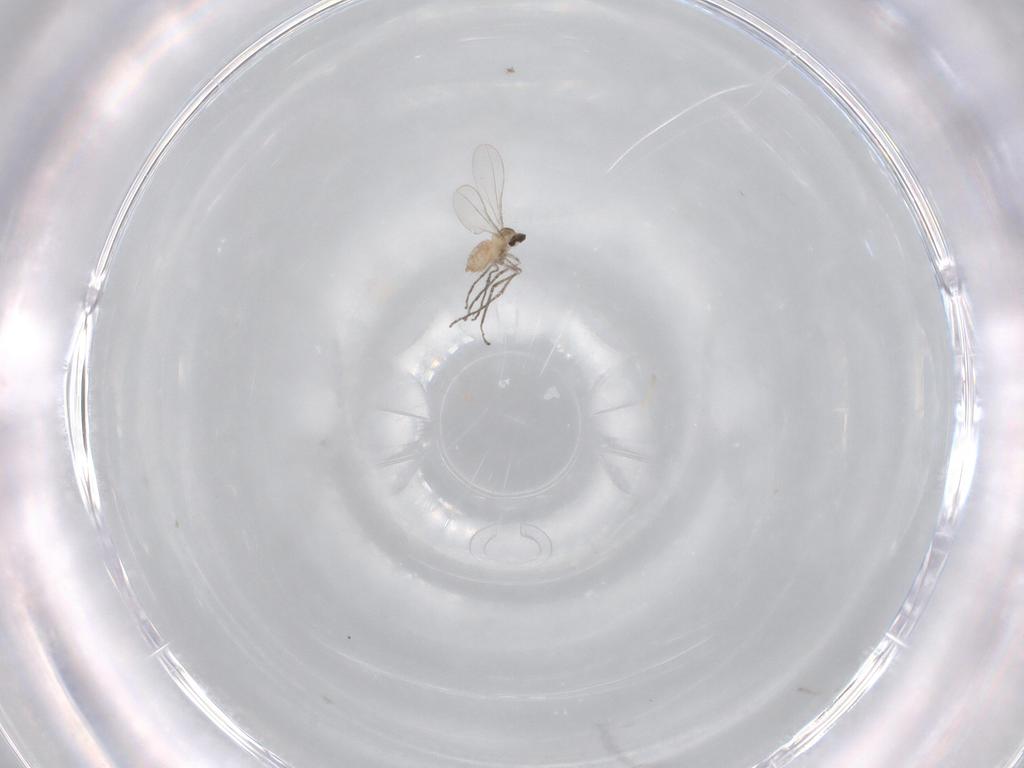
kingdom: Animalia
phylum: Arthropoda
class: Insecta
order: Diptera
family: Cecidomyiidae
